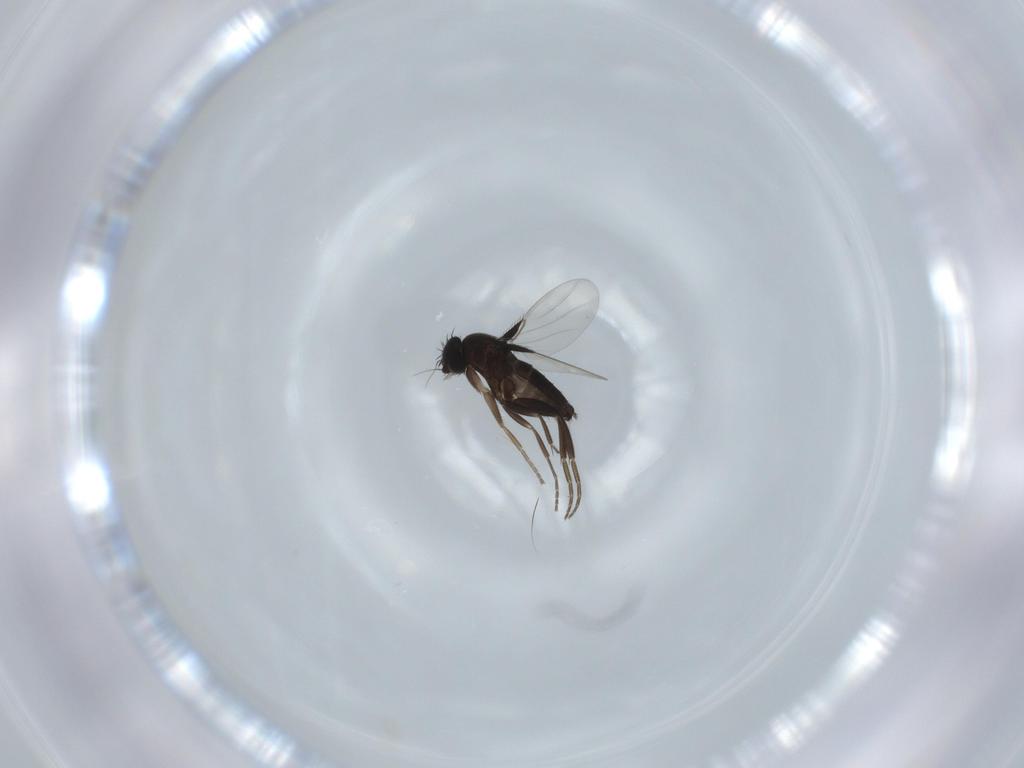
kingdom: Animalia
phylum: Arthropoda
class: Insecta
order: Diptera
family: Phoridae
